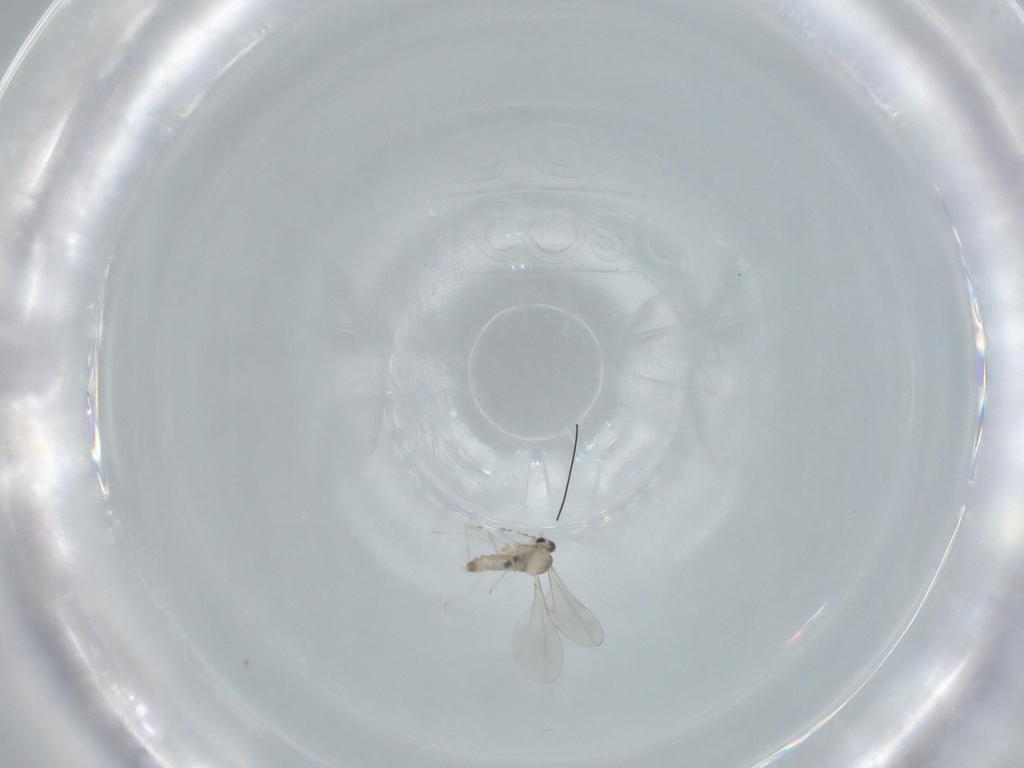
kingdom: Animalia
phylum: Arthropoda
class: Insecta
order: Diptera
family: Cecidomyiidae
